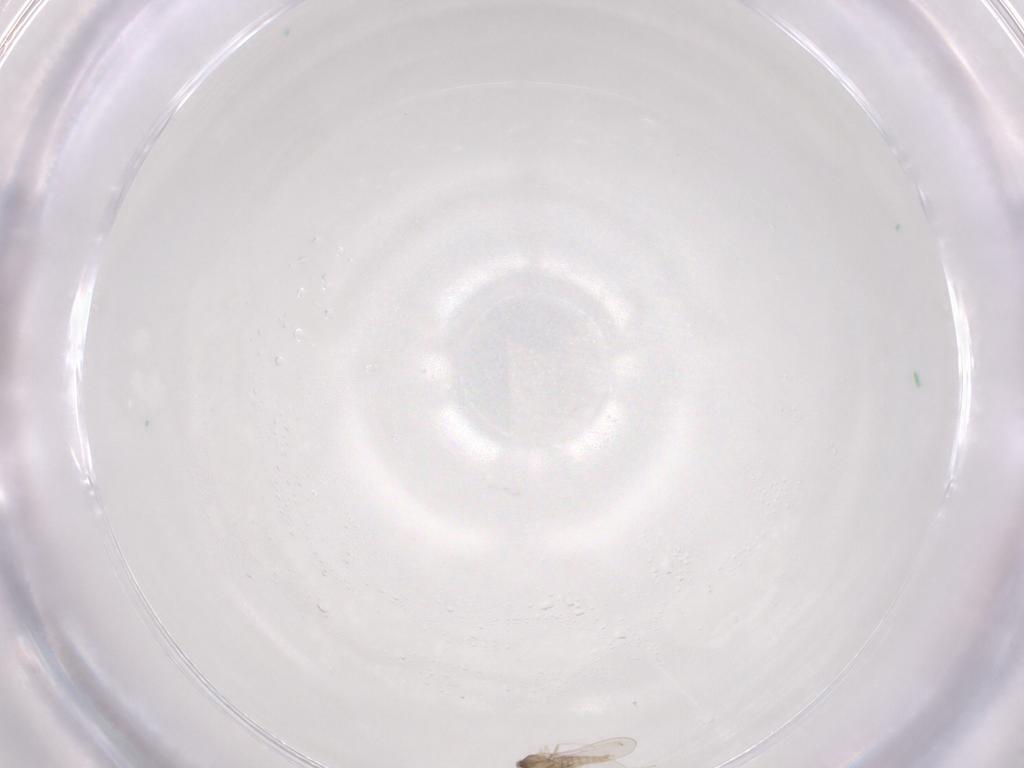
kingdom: Animalia
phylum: Arthropoda
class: Insecta
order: Diptera
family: Cecidomyiidae
